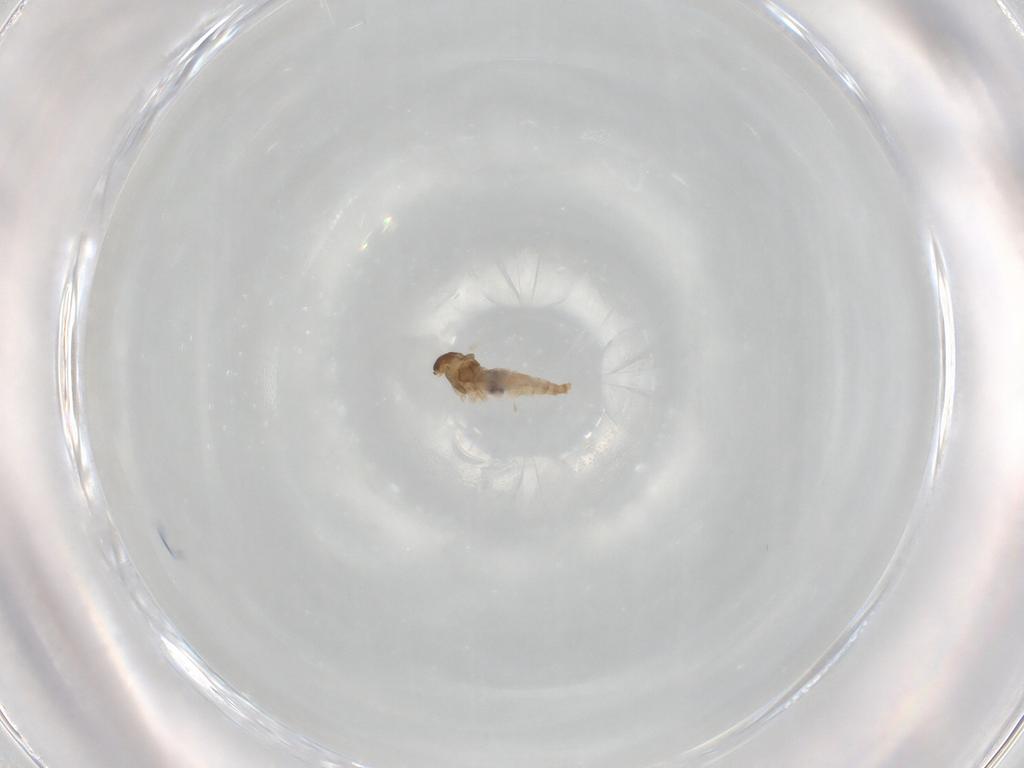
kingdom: Animalia
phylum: Arthropoda
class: Insecta
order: Diptera
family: Cecidomyiidae
